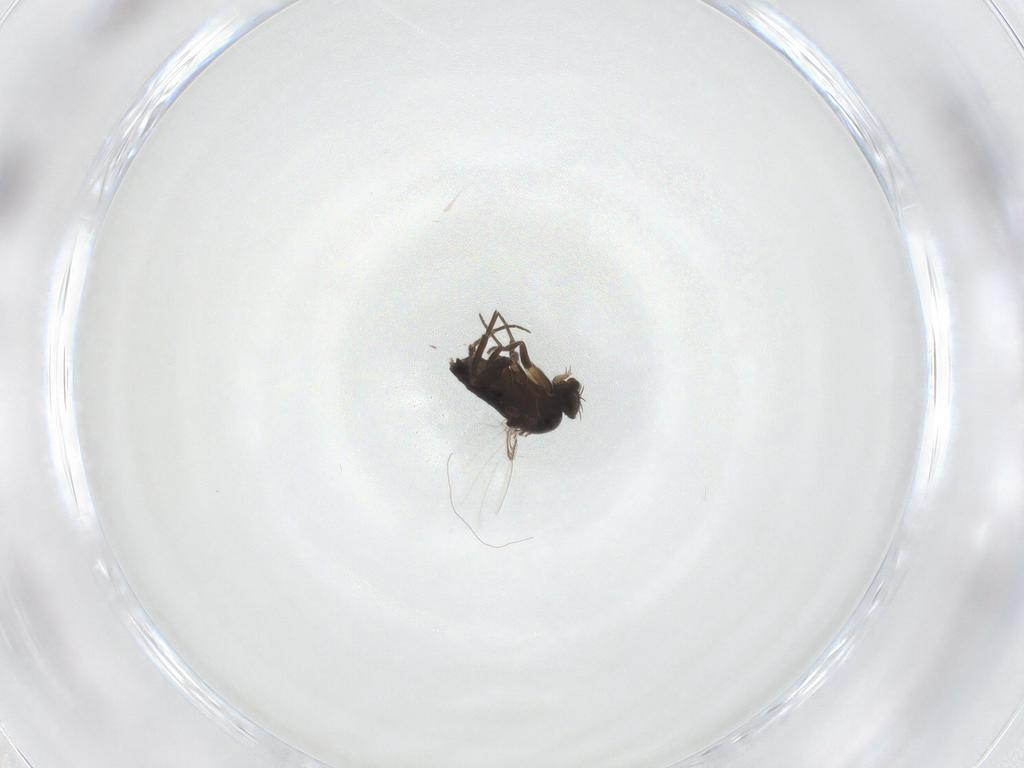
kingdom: Animalia
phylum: Arthropoda
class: Insecta
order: Diptera
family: Phoridae
